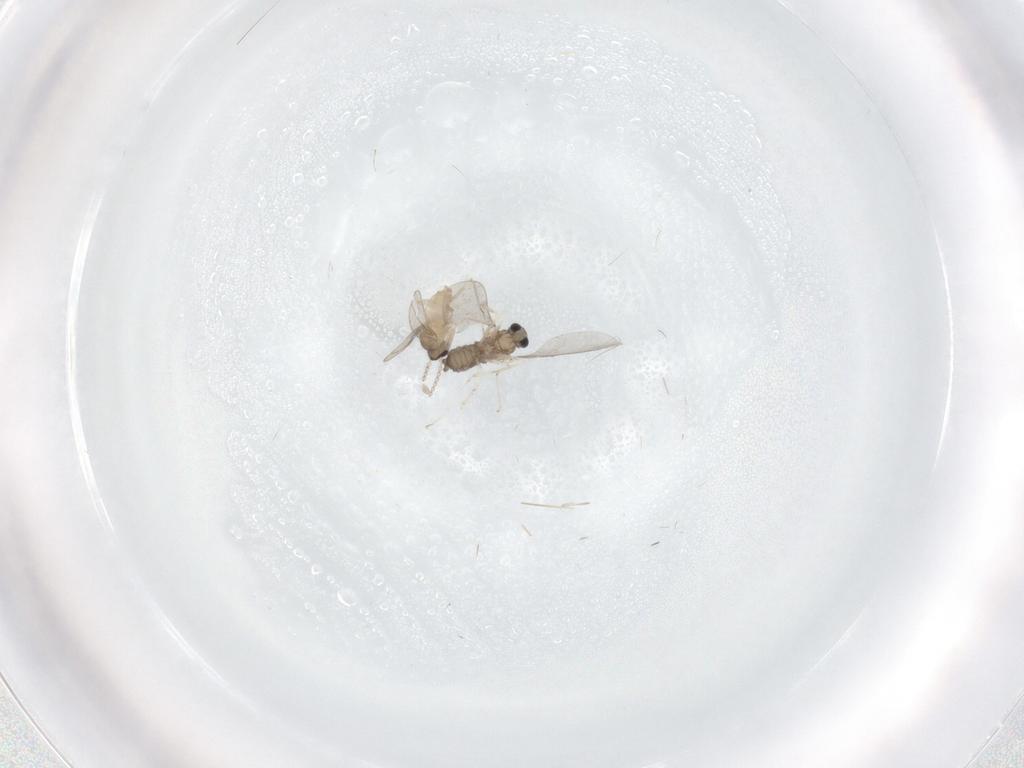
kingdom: Animalia
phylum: Arthropoda
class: Insecta
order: Diptera
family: Cecidomyiidae
